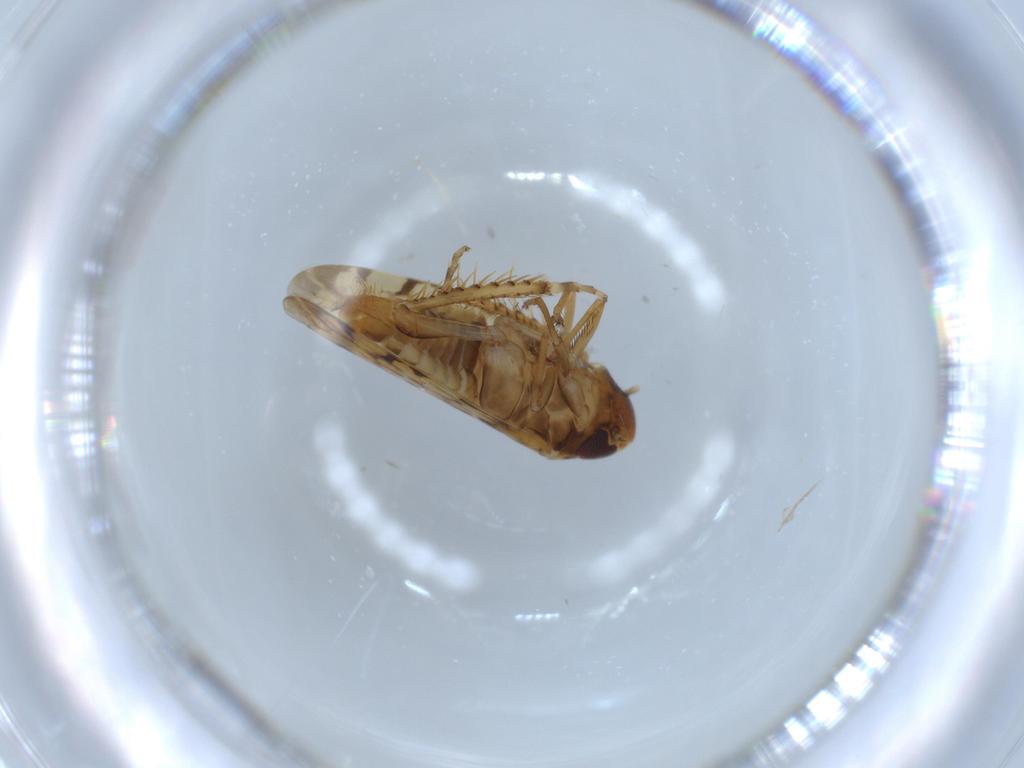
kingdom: Animalia
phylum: Arthropoda
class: Insecta
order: Hemiptera
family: Cicadellidae
